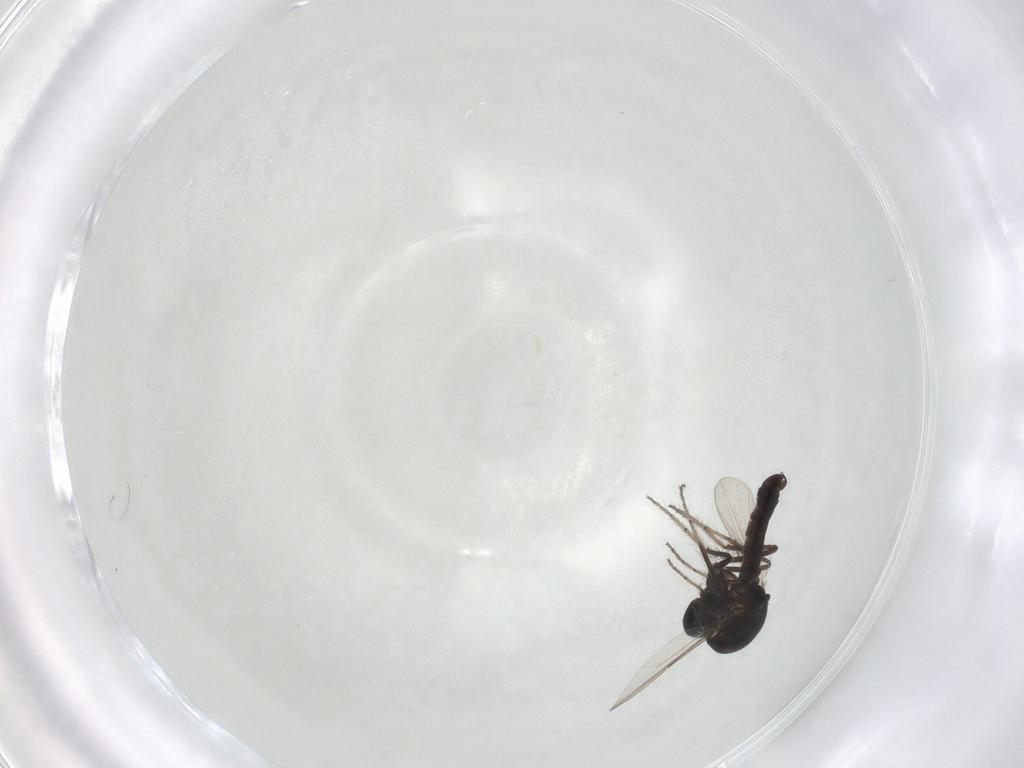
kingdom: Animalia
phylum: Arthropoda
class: Insecta
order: Diptera
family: Ceratopogonidae
